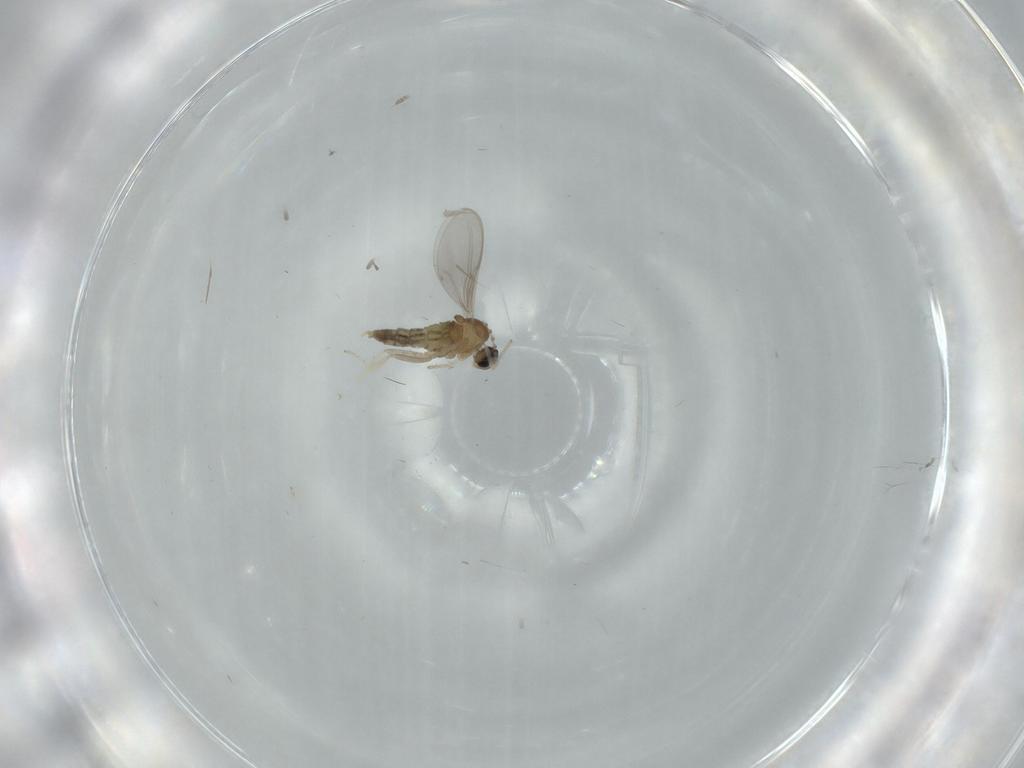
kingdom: Animalia
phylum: Arthropoda
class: Insecta
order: Diptera
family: Cecidomyiidae
